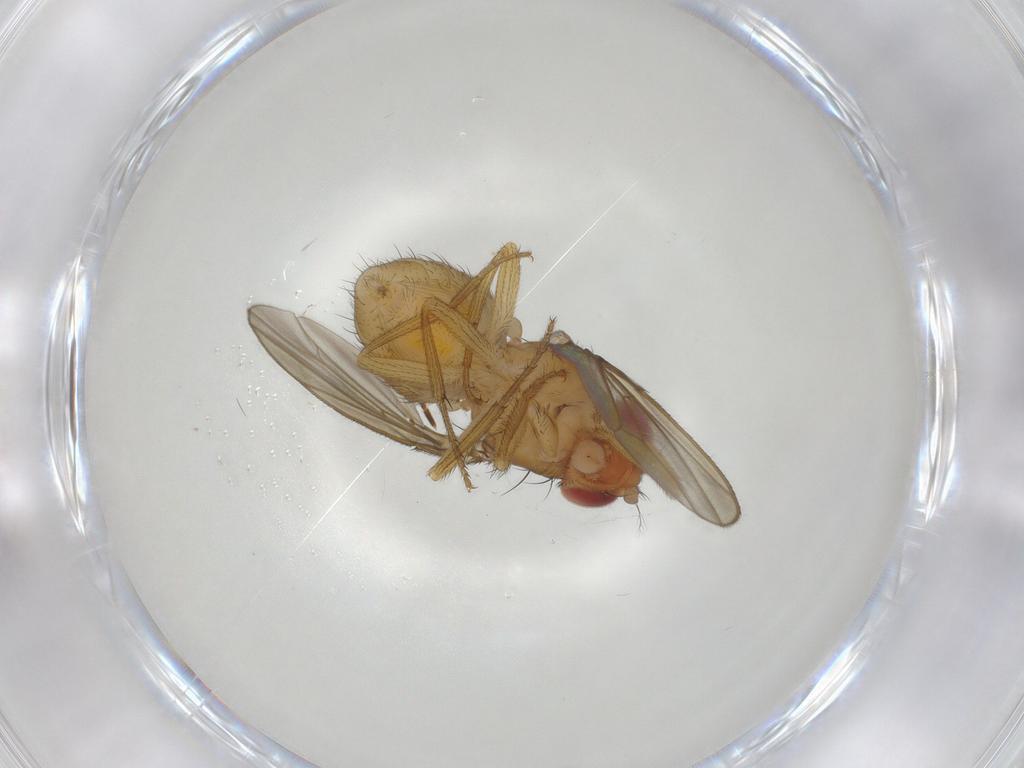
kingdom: Animalia
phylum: Arthropoda
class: Insecta
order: Diptera
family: Drosophilidae
